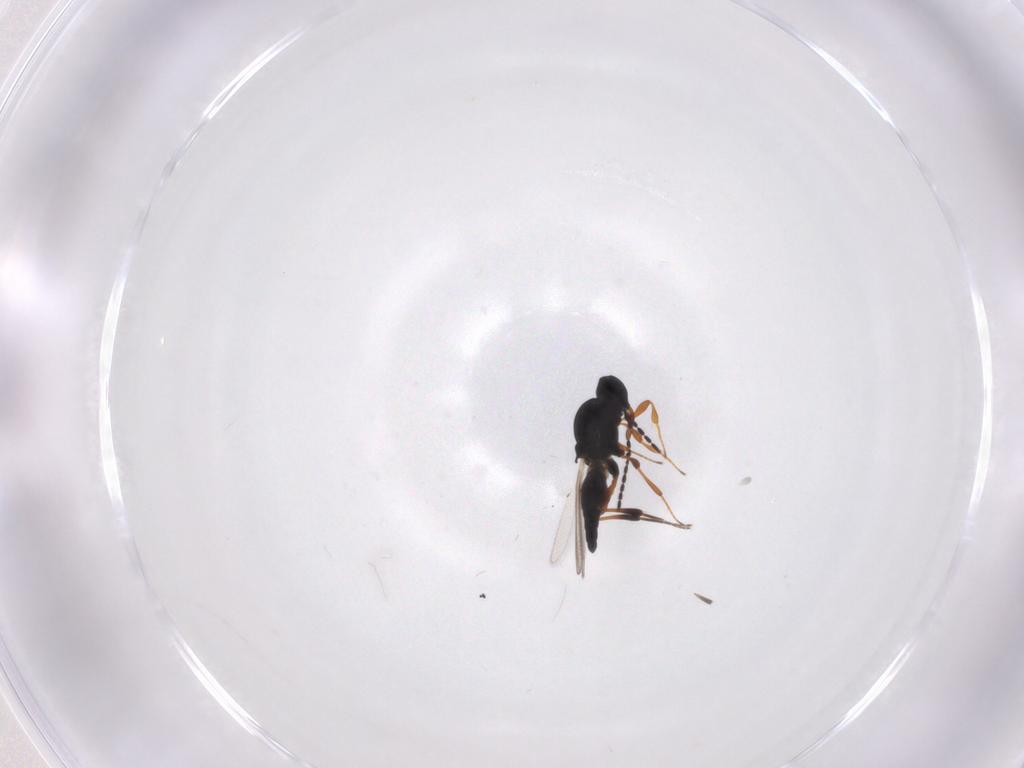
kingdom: Animalia
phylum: Arthropoda
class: Insecta
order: Hymenoptera
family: Platygastridae
